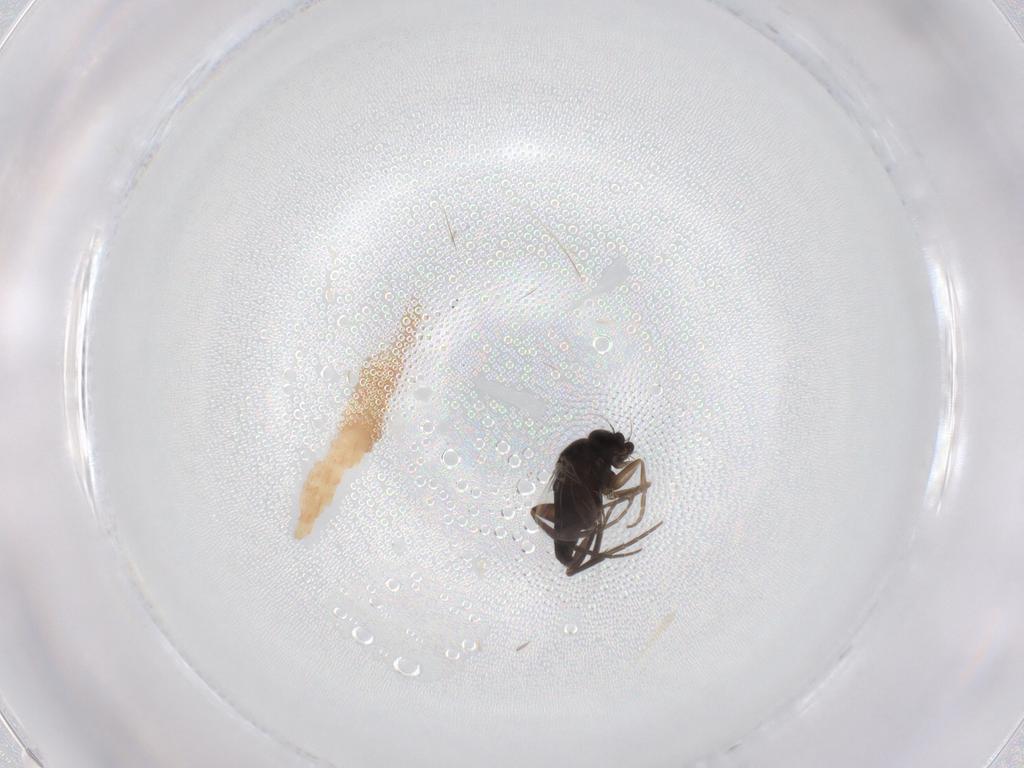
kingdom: Animalia
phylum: Arthropoda
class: Insecta
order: Diptera
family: Phoridae
